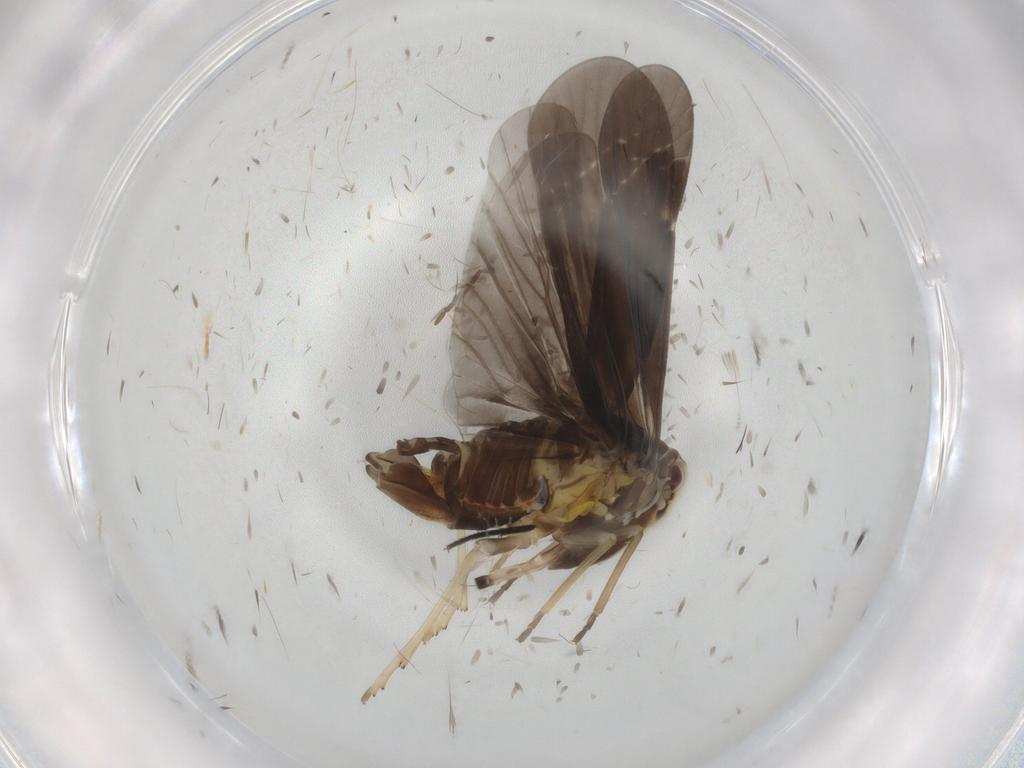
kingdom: Animalia
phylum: Arthropoda
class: Insecta
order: Hemiptera
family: Derbidae
